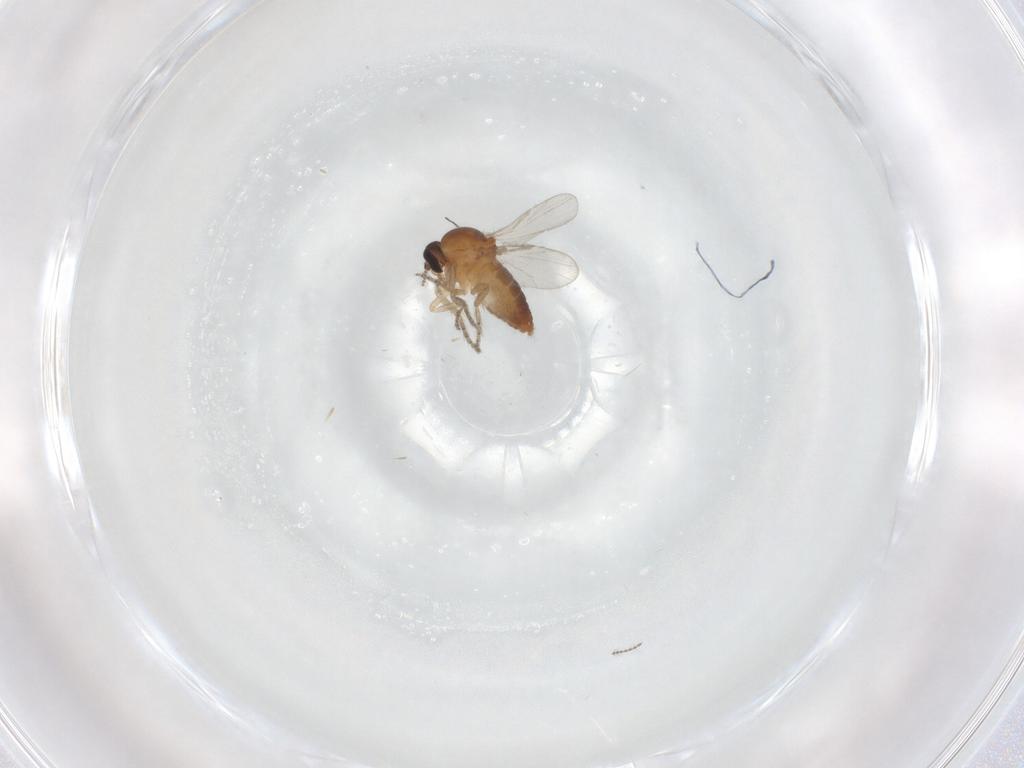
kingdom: Animalia
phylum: Arthropoda
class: Insecta
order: Diptera
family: Ceratopogonidae
